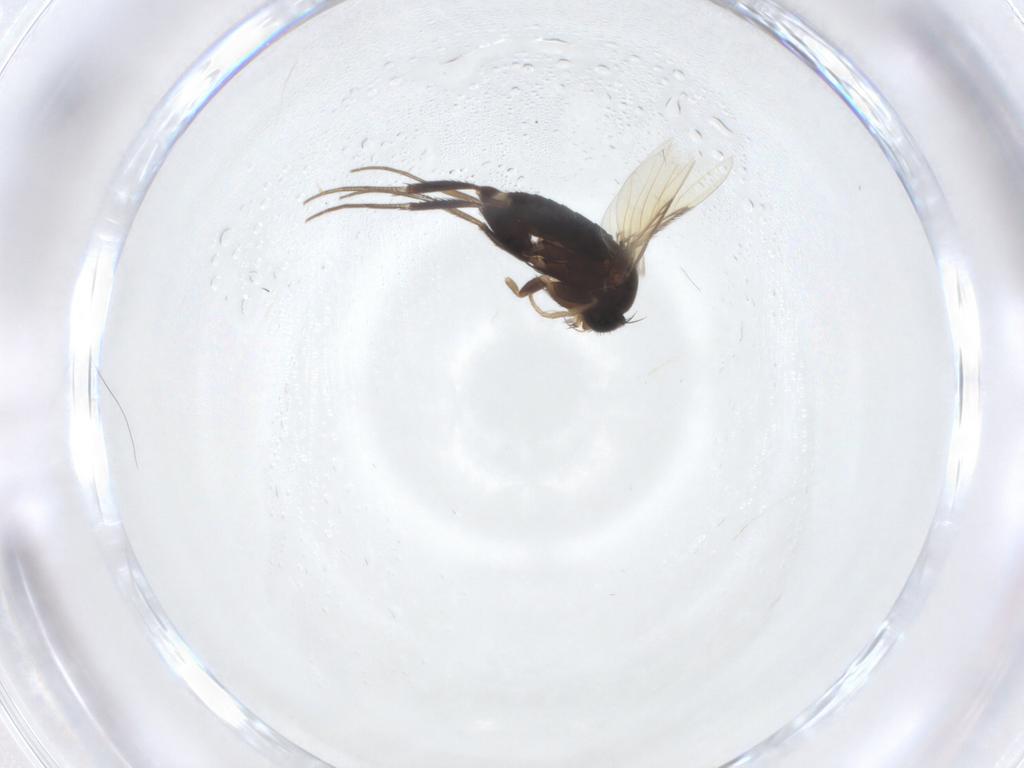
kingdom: Animalia
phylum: Arthropoda
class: Insecta
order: Diptera
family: Phoridae
